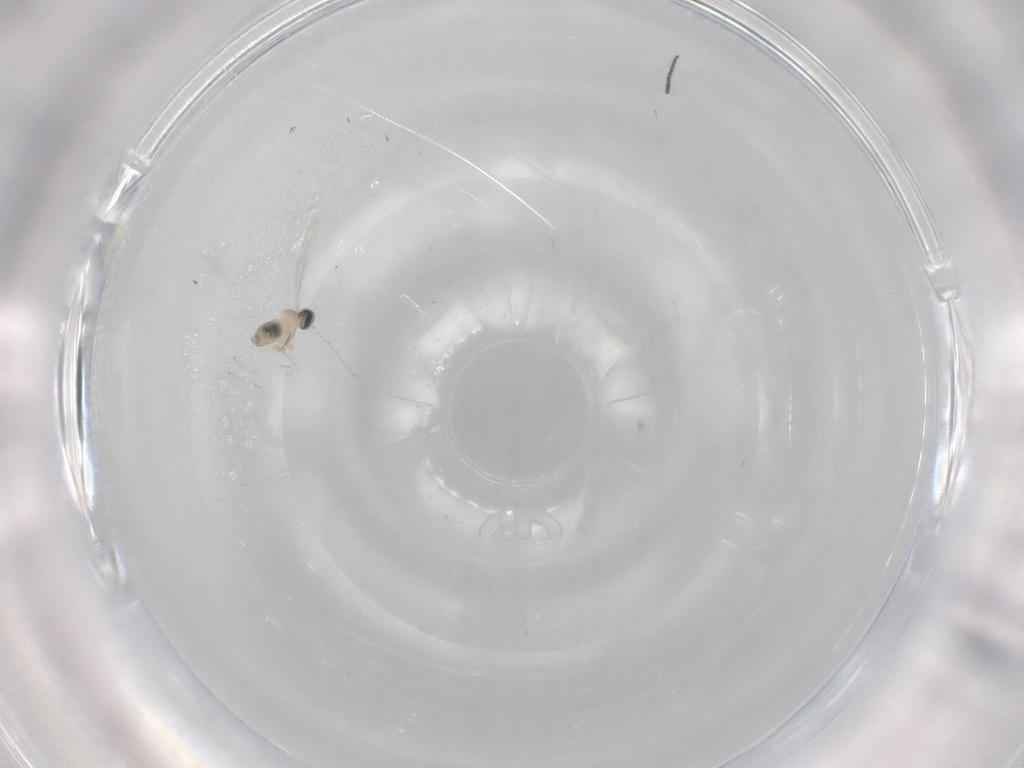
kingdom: Animalia
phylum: Arthropoda
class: Insecta
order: Diptera
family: Cecidomyiidae
